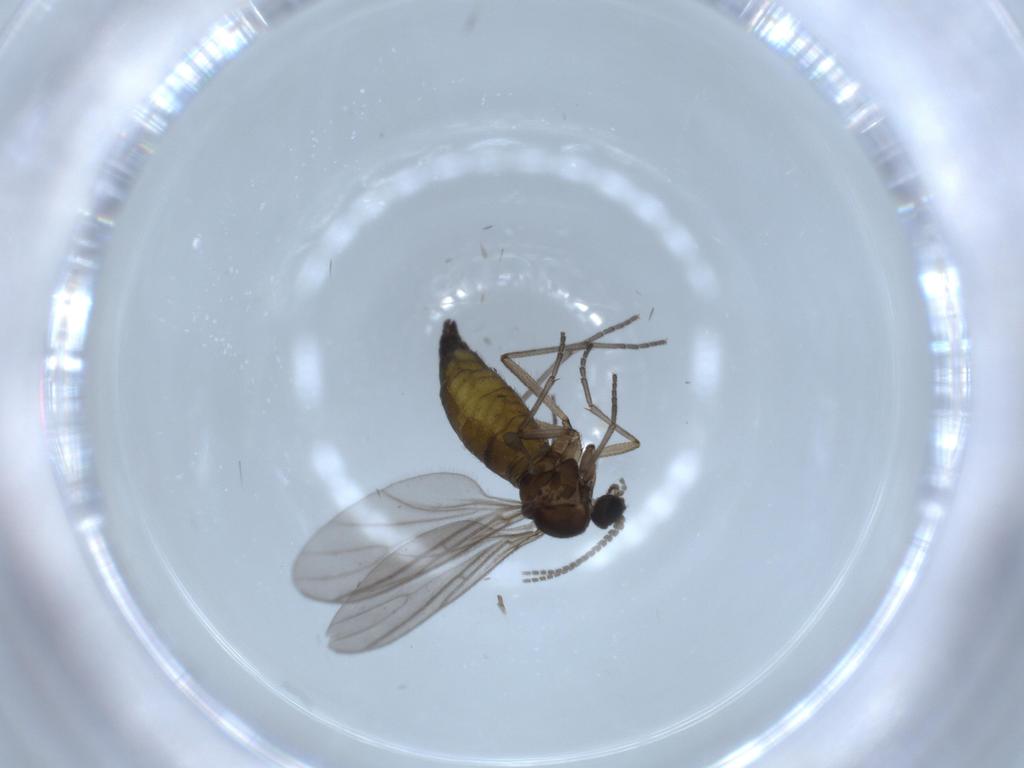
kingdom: Animalia
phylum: Arthropoda
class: Insecta
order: Diptera
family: Sciaridae
